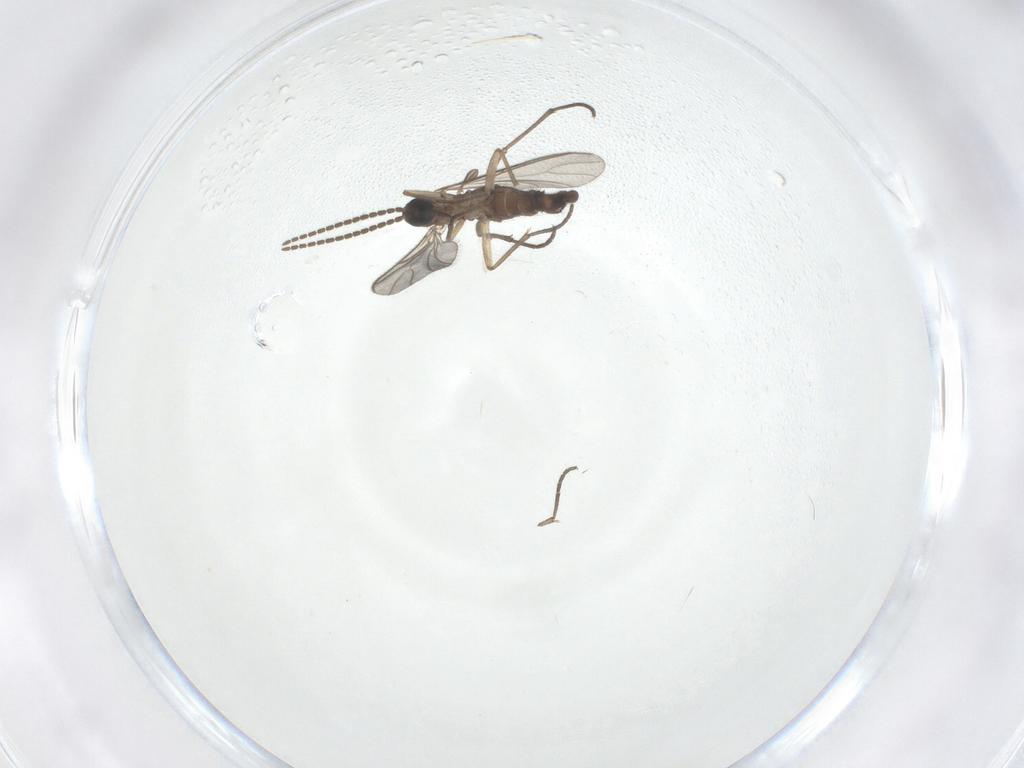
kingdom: Animalia
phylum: Arthropoda
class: Insecta
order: Diptera
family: Sciaridae
